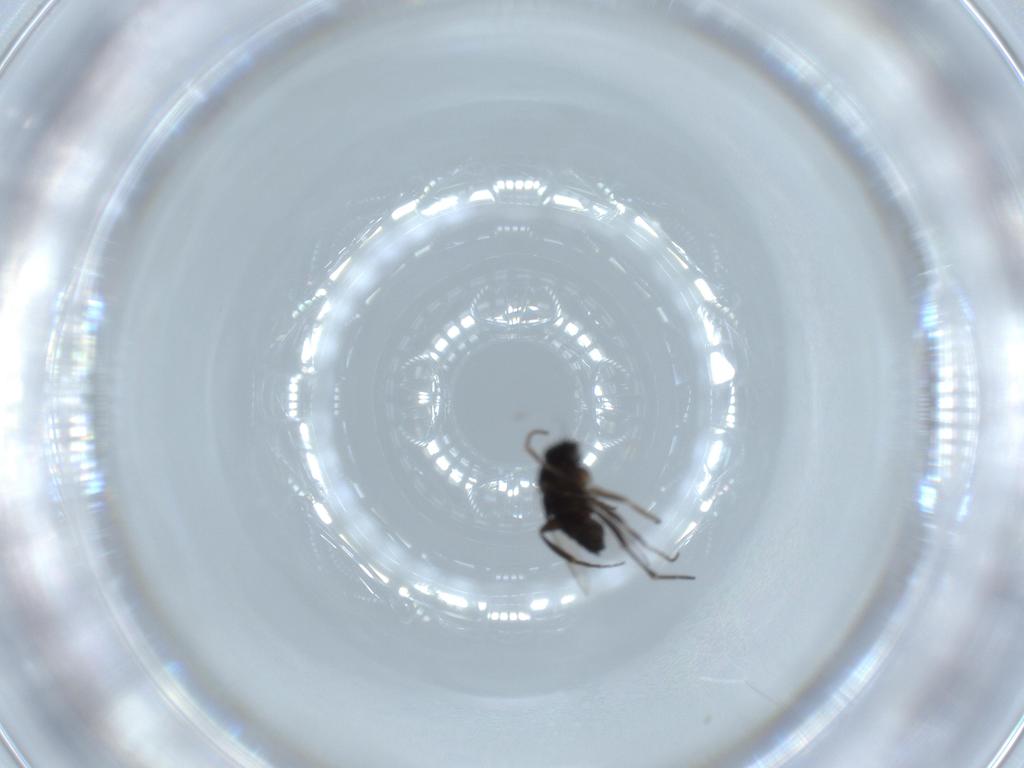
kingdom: Animalia
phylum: Arthropoda
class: Insecta
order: Diptera
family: Phoridae
